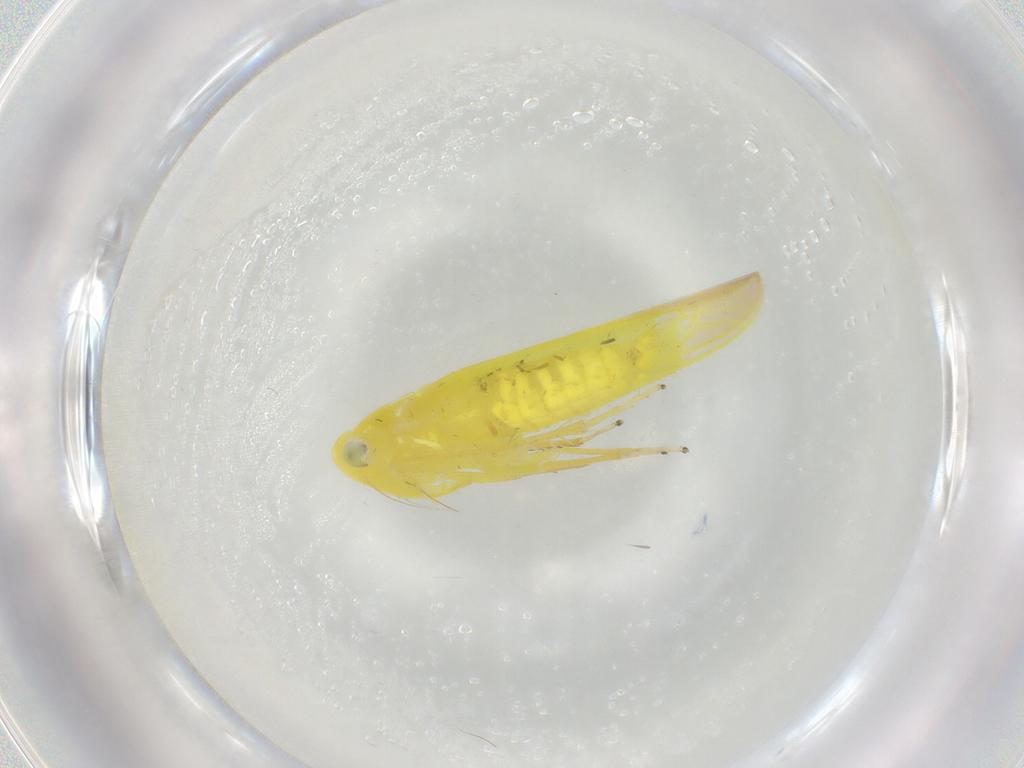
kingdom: Animalia
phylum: Arthropoda
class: Insecta
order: Hemiptera
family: Cicadellidae
